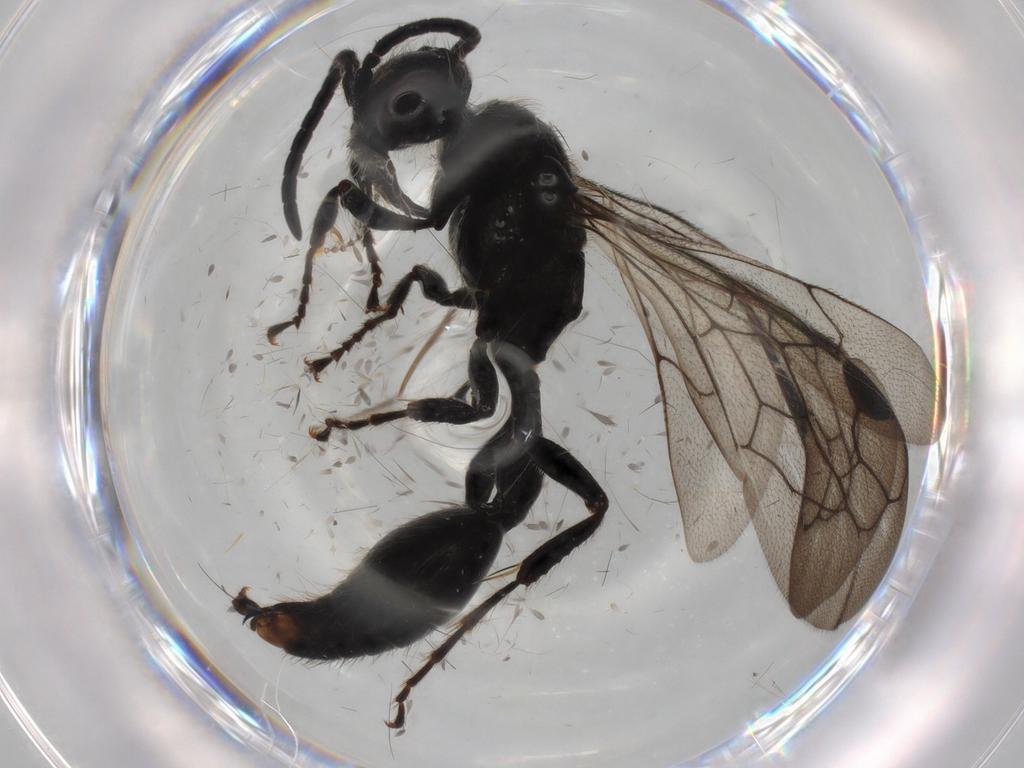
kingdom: Animalia
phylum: Arthropoda
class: Insecta
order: Hymenoptera
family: Tiphiidae
